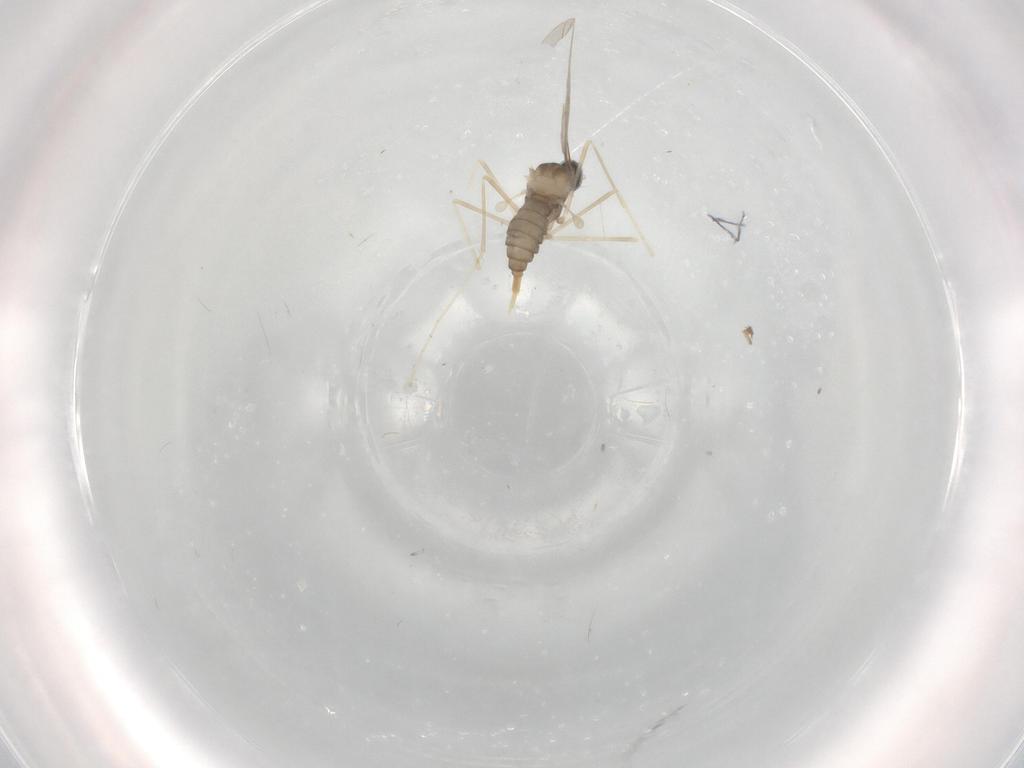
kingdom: Animalia
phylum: Arthropoda
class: Insecta
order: Diptera
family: Cecidomyiidae
